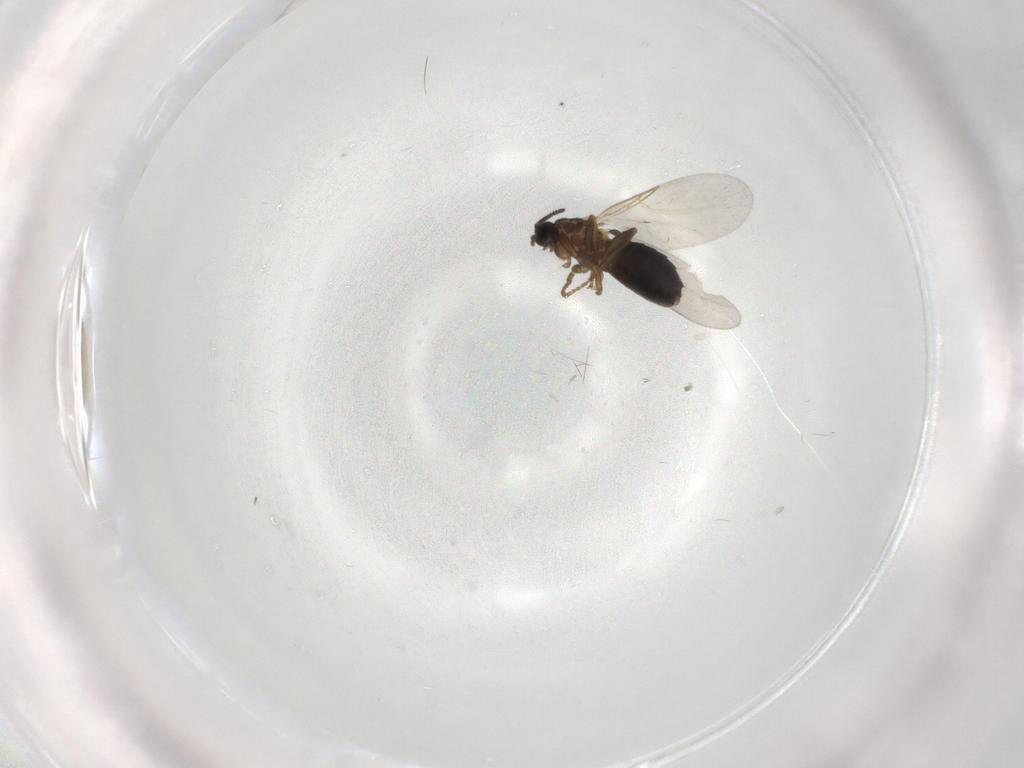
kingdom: Animalia
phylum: Arthropoda
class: Insecta
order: Diptera
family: Scatopsidae
